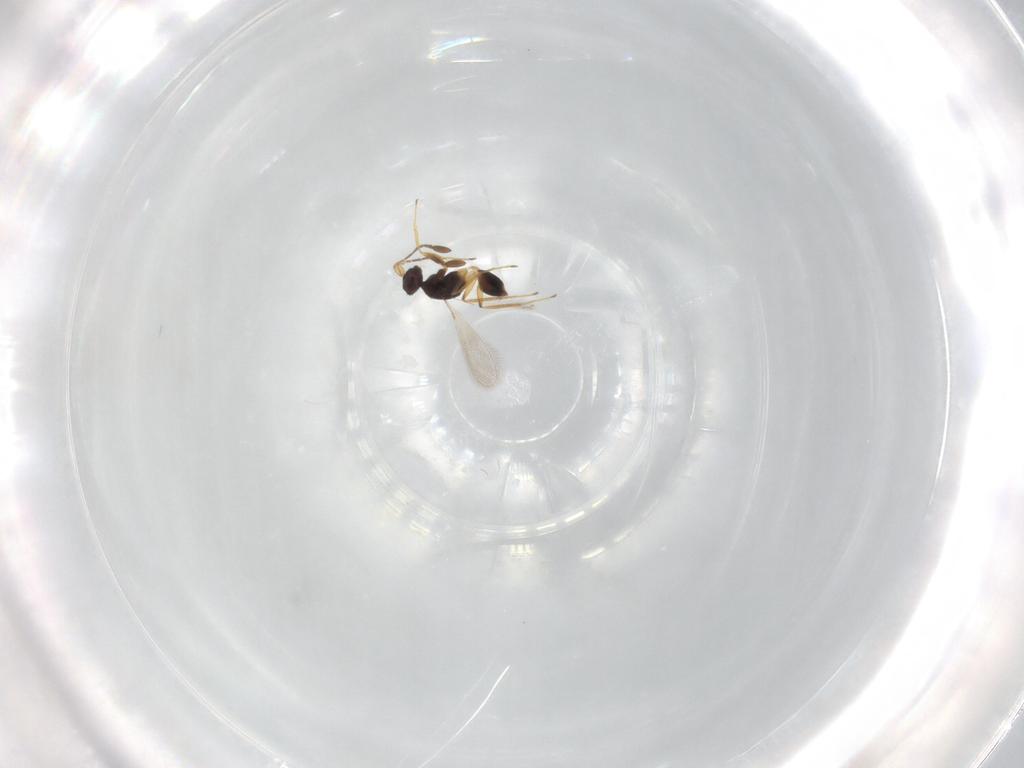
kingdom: Animalia
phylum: Arthropoda
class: Insecta
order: Hymenoptera
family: Mymaridae
